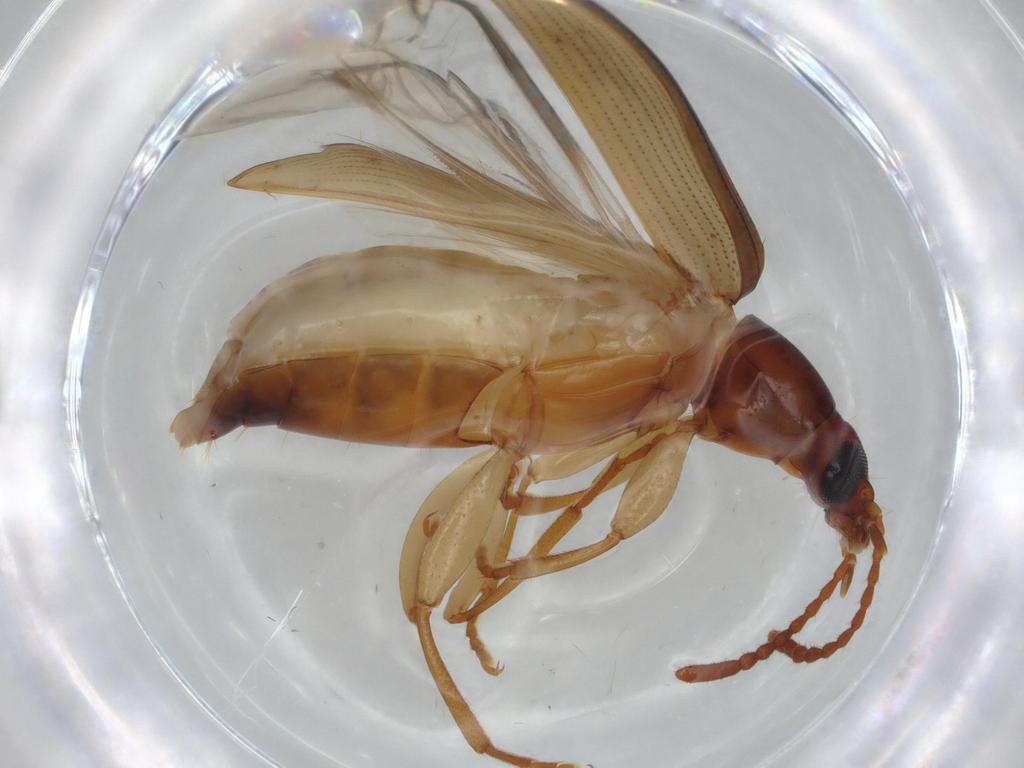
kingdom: Animalia
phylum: Arthropoda
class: Insecta
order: Coleoptera
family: Tenebrionidae
